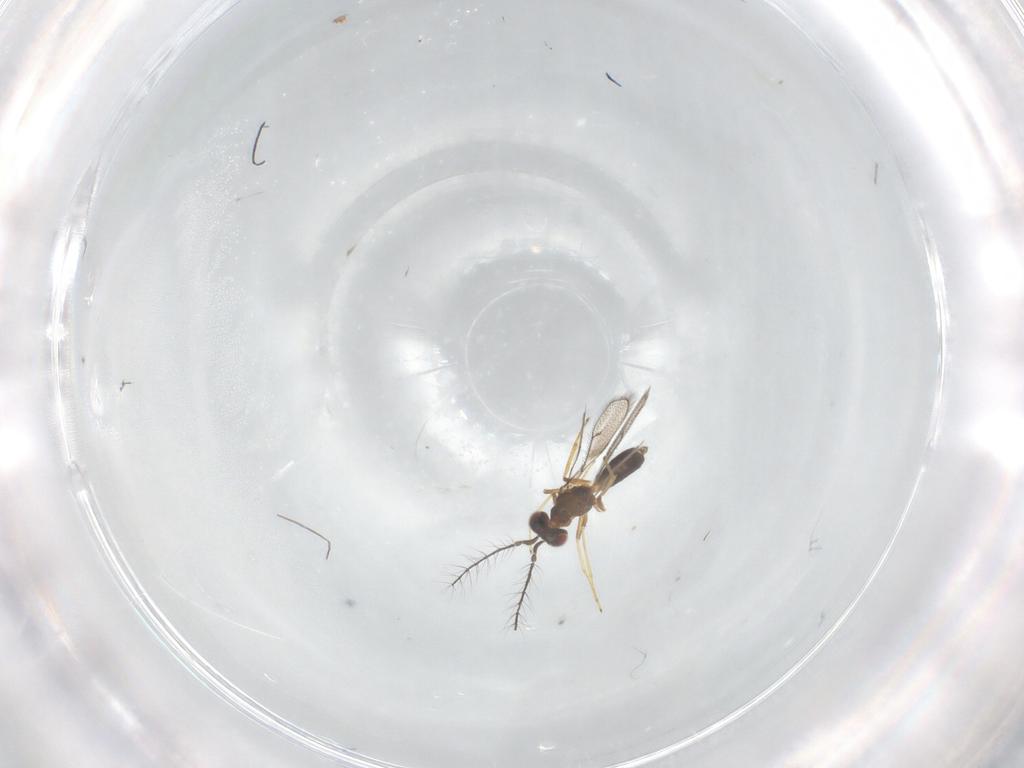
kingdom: Animalia
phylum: Arthropoda
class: Insecta
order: Hymenoptera
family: Eulophidae
